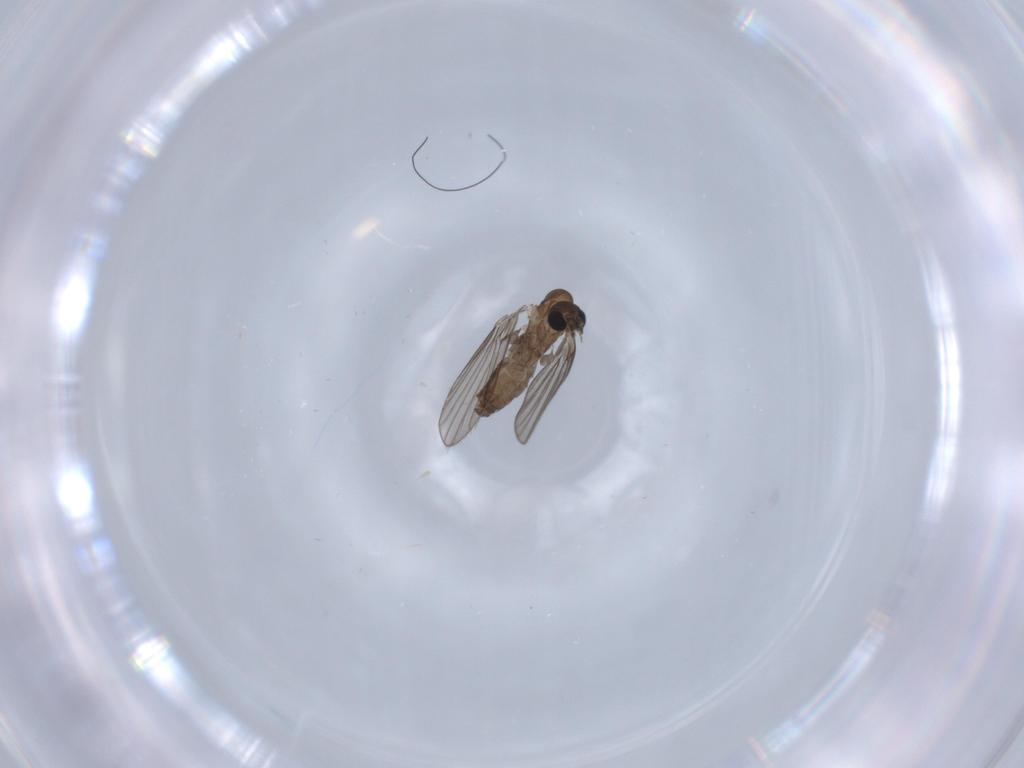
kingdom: Animalia
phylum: Arthropoda
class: Insecta
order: Diptera
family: Psychodidae
